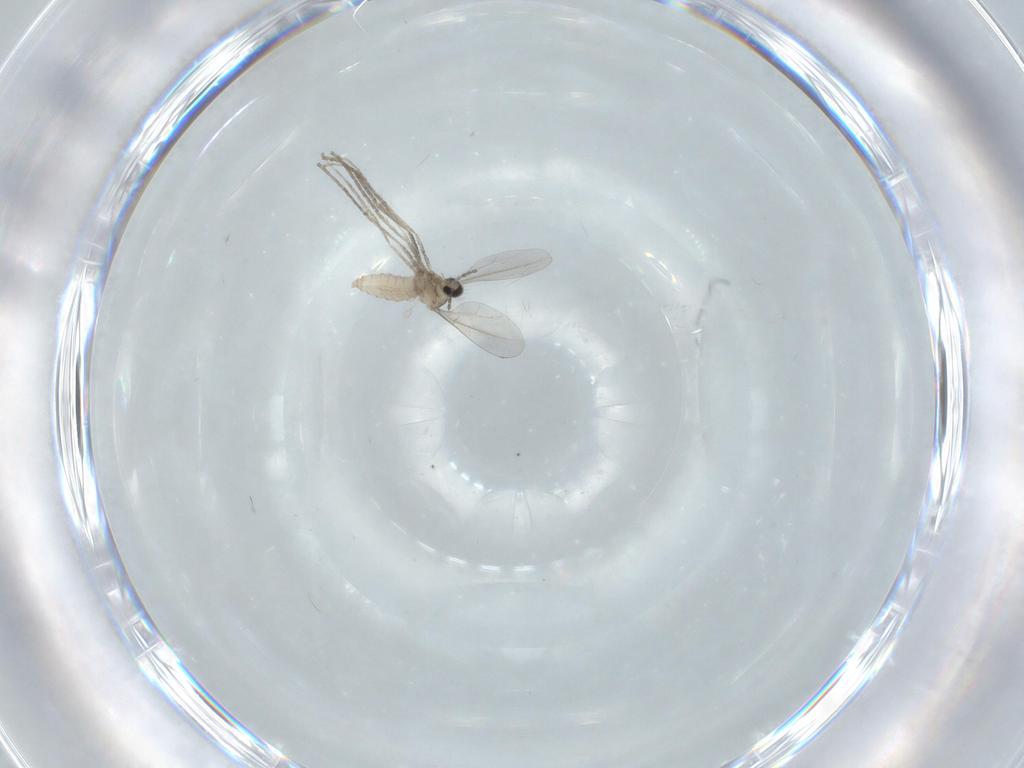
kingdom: Animalia
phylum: Arthropoda
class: Insecta
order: Diptera
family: Cecidomyiidae
